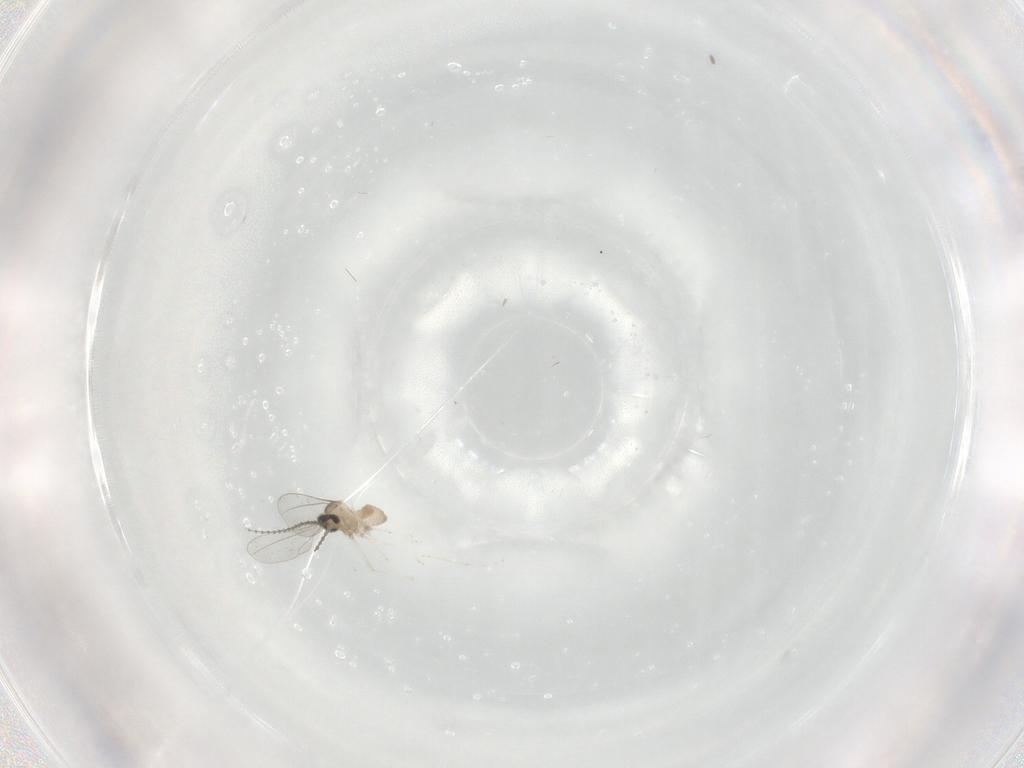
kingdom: Animalia
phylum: Arthropoda
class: Insecta
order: Diptera
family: Cecidomyiidae
